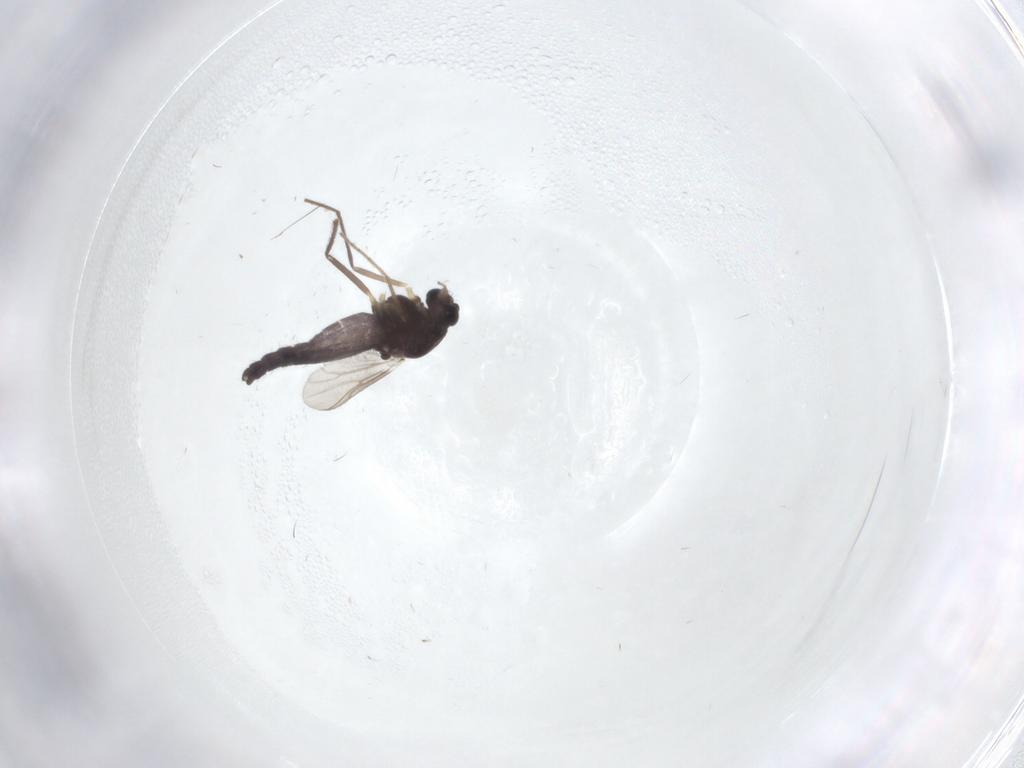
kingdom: Animalia
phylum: Arthropoda
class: Insecta
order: Diptera
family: Chironomidae
